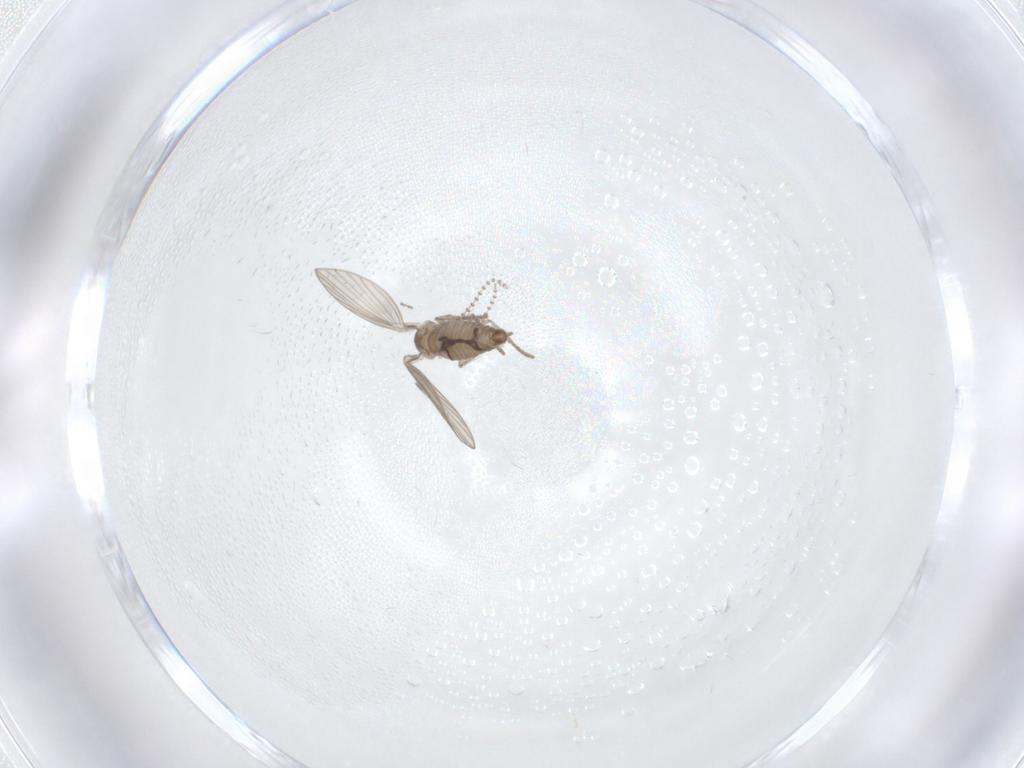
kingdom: Animalia
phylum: Arthropoda
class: Insecta
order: Diptera
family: Psychodidae
